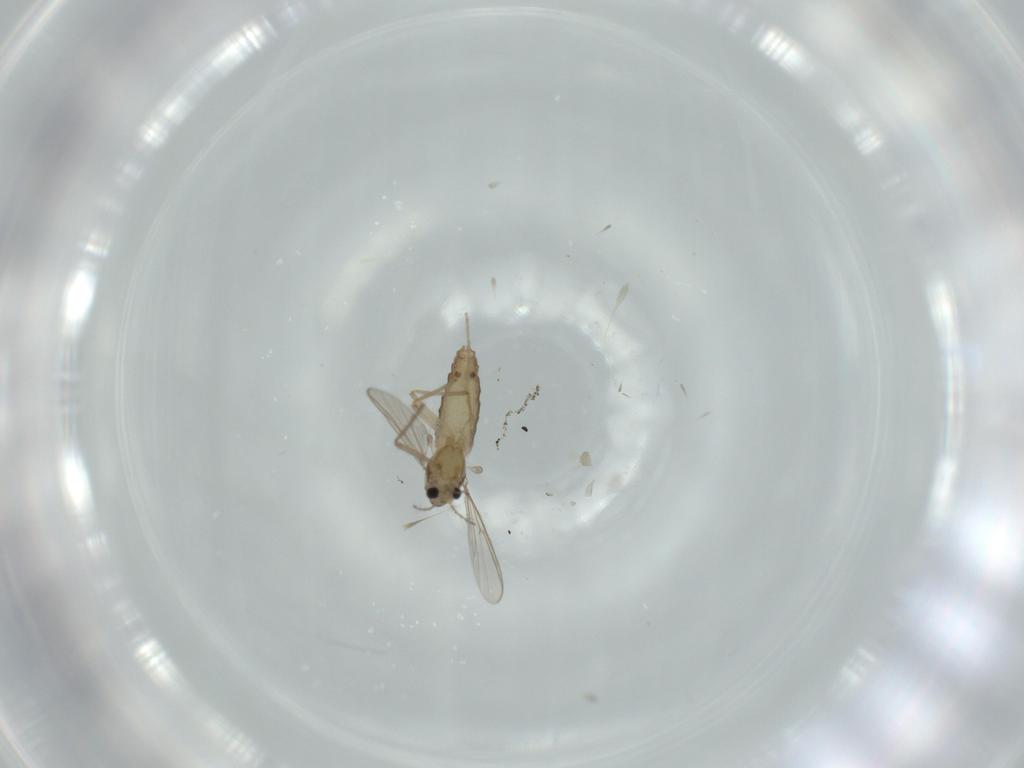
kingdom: Animalia
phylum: Arthropoda
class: Insecta
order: Diptera
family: Chironomidae
